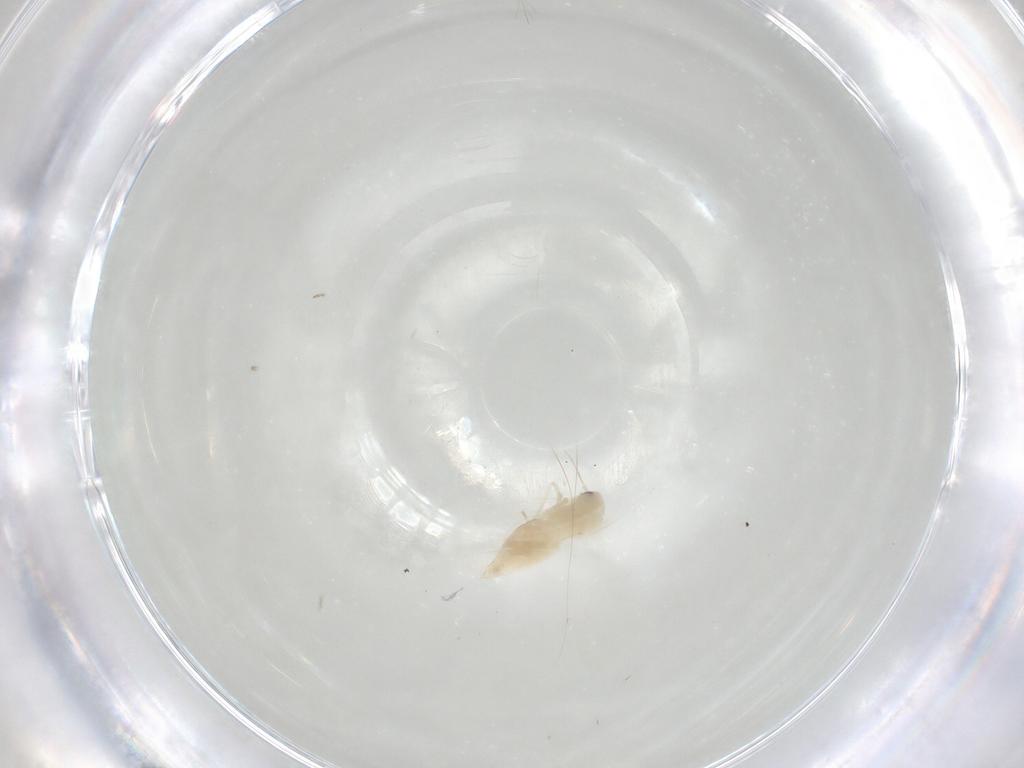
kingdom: Animalia
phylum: Arthropoda
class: Insecta
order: Hemiptera
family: Aleyrodidae
